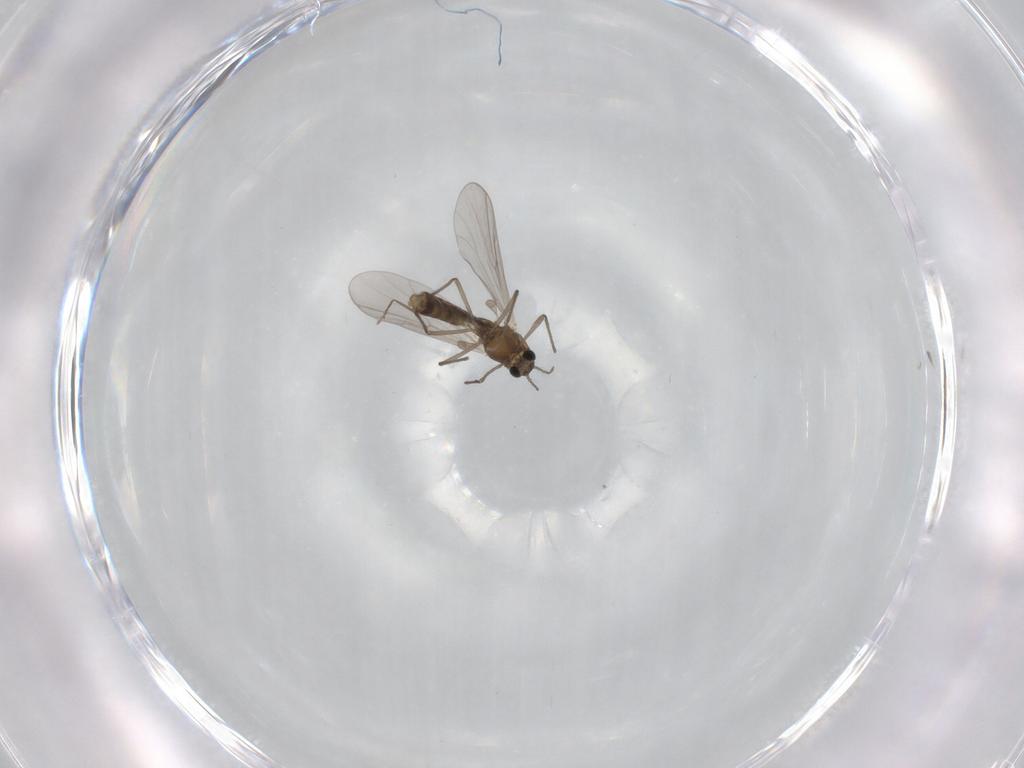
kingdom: Animalia
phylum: Arthropoda
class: Insecta
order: Diptera
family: Chironomidae
